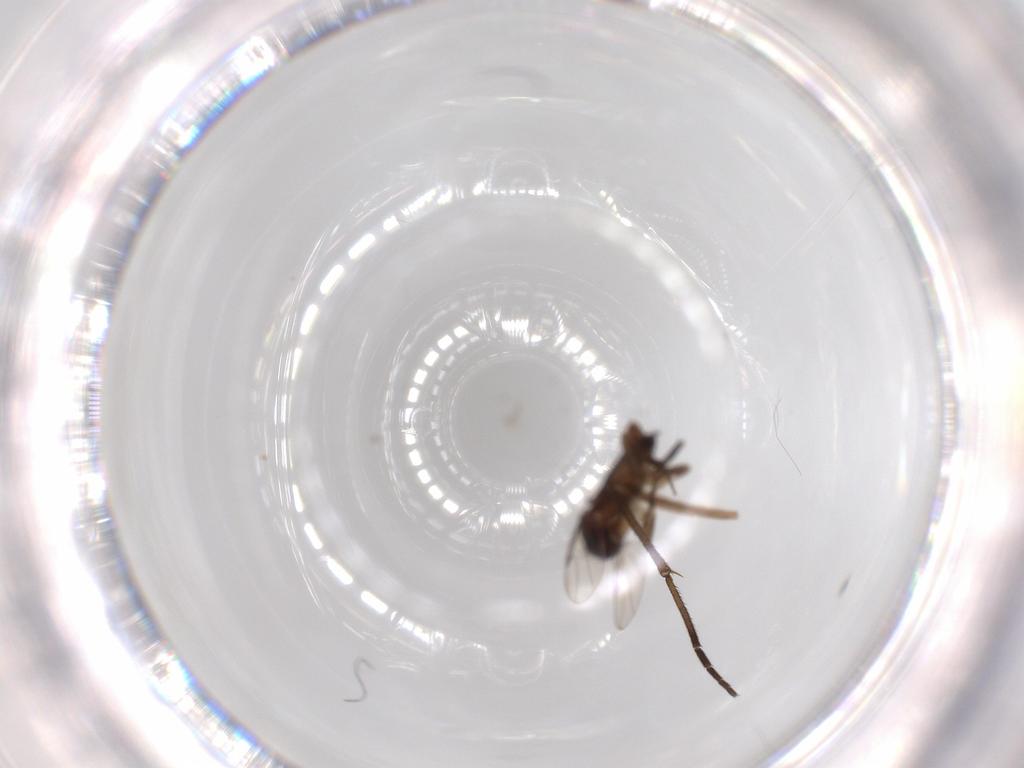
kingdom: Animalia
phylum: Arthropoda
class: Insecta
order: Diptera
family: Phoridae
